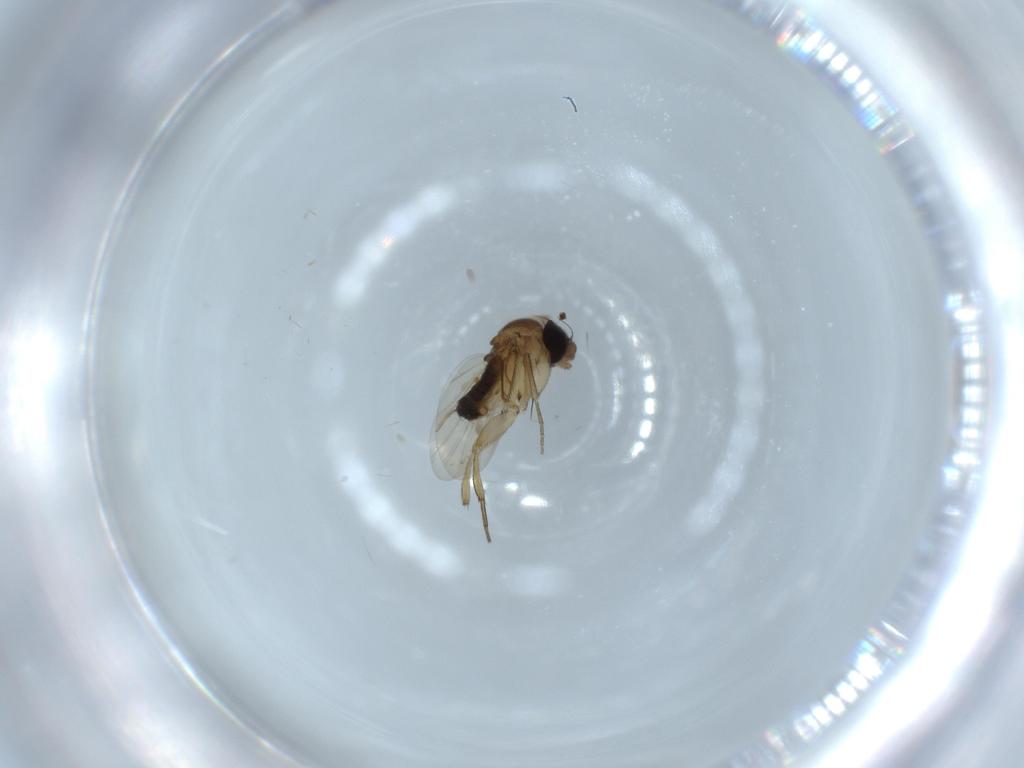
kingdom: Animalia
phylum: Arthropoda
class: Insecta
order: Diptera
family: Phoridae
